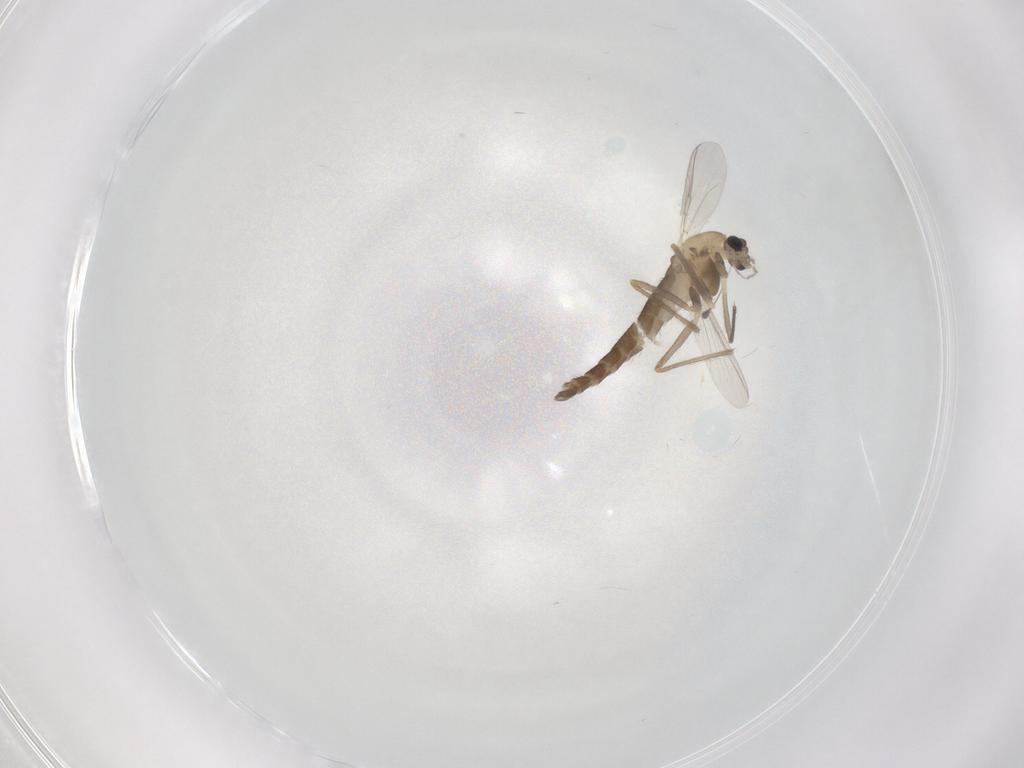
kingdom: Animalia
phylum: Arthropoda
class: Insecta
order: Diptera
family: Chironomidae
